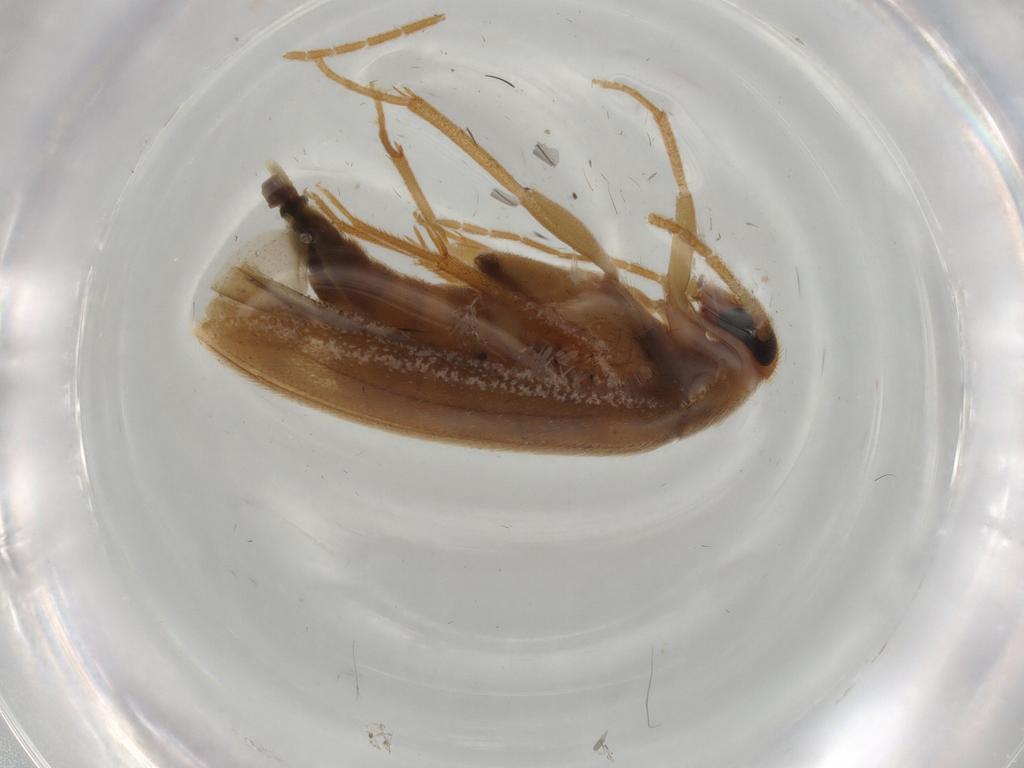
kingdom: Animalia
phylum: Arthropoda
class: Insecta
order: Coleoptera
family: Scraptiidae
